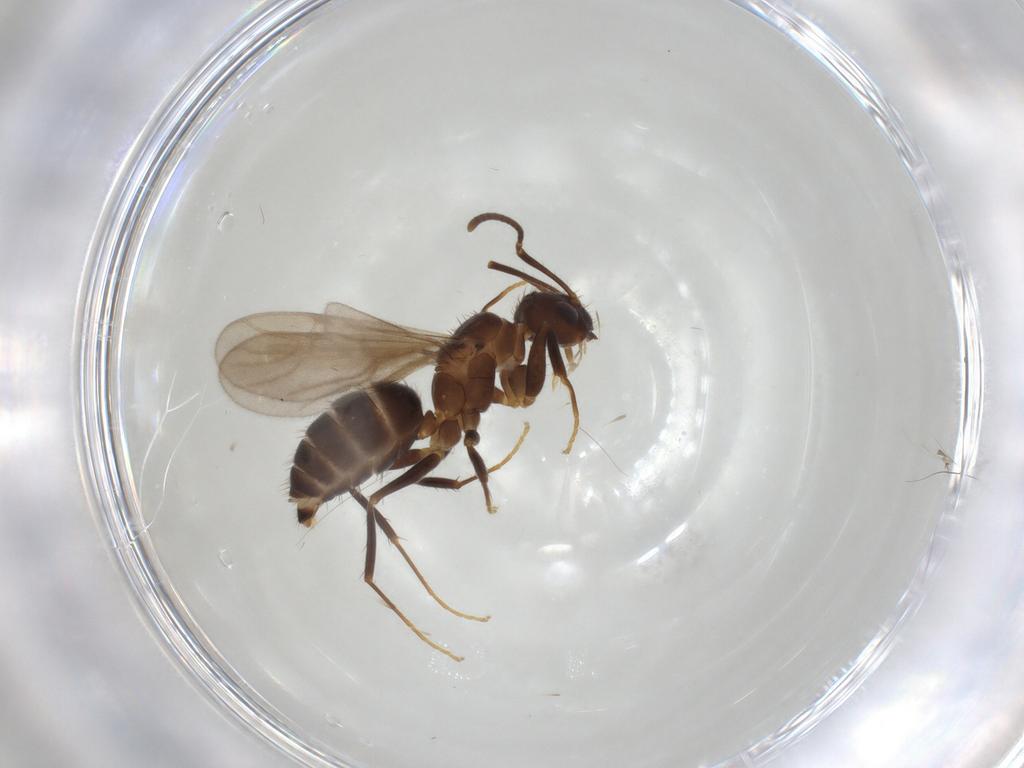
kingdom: Animalia
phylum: Arthropoda
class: Insecta
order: Hymenoptera
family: Formicidae
